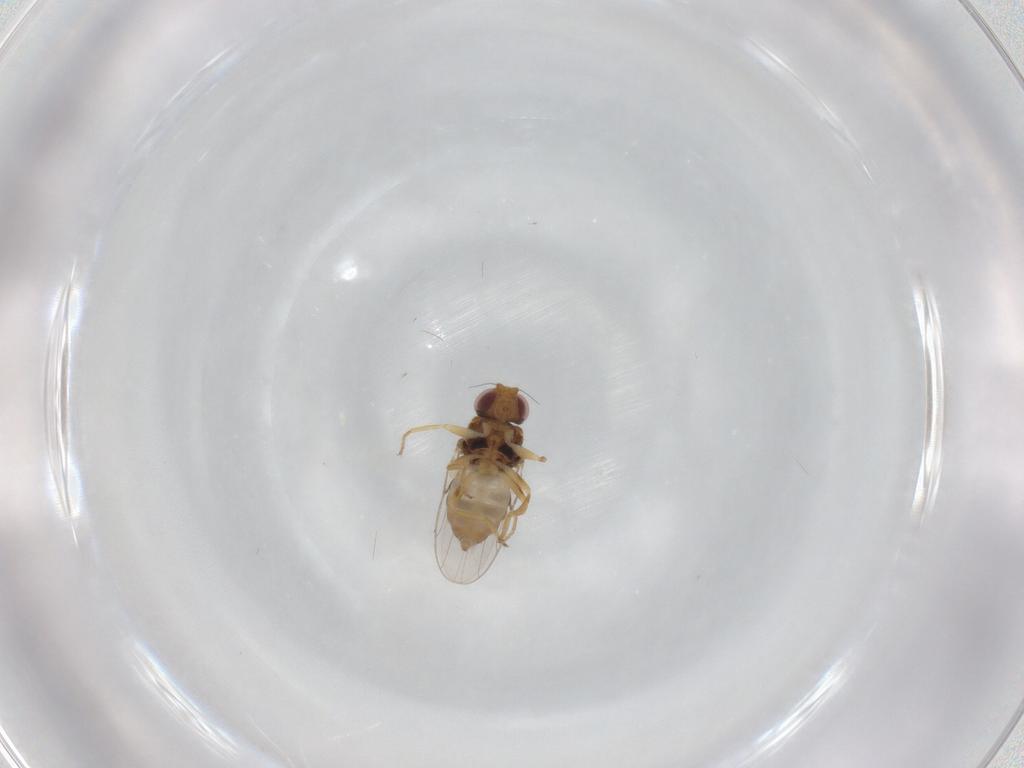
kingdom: Animalia
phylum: Arthropoda
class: Insecta
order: Diptera
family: Chloropidae
